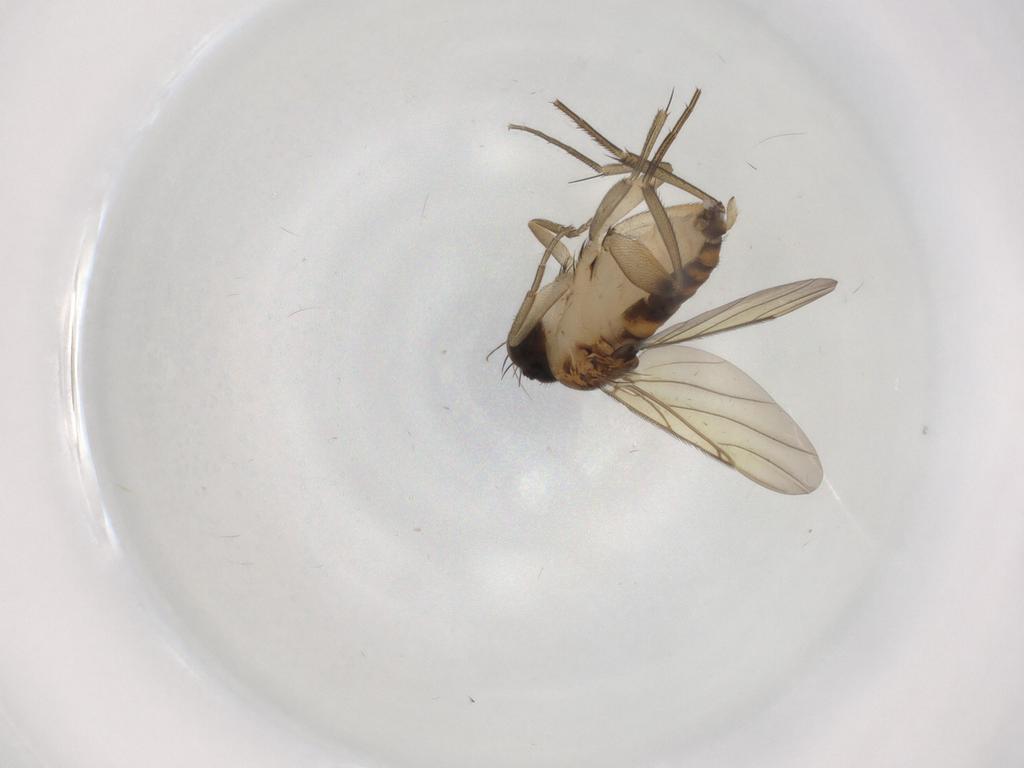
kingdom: Animalia
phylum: Arthropoda
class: Insecta
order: Diptera
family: Phoridae
